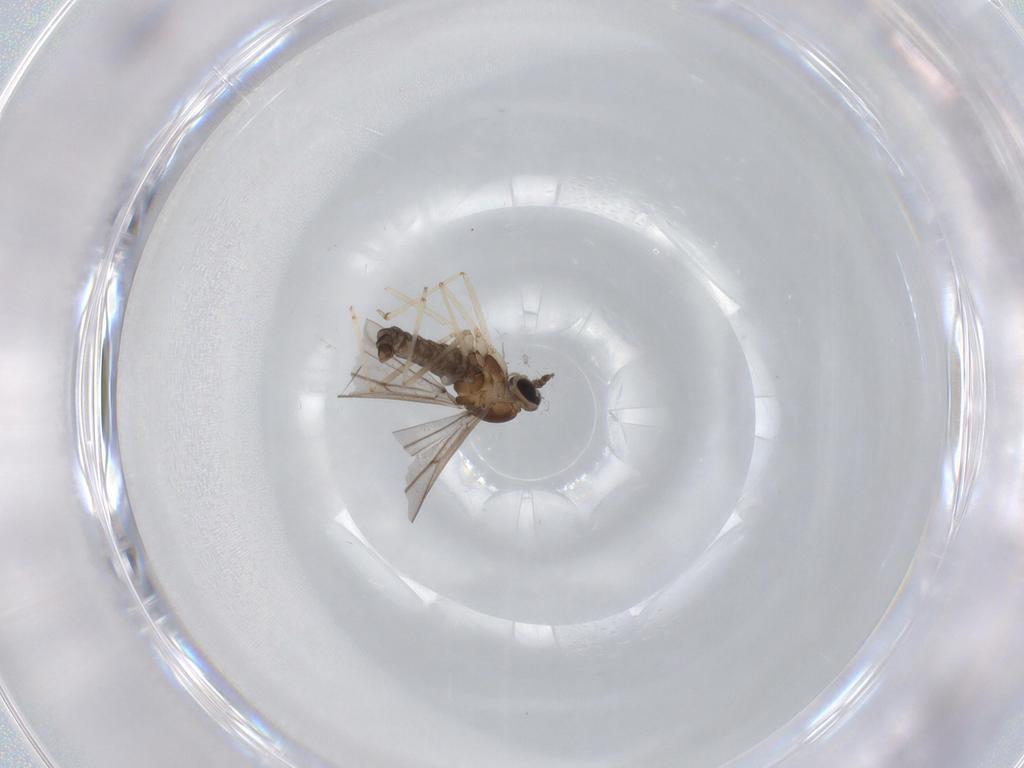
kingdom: Animalia
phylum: Arthropoda
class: Insecta
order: Diptera
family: Cecidomyiidae
